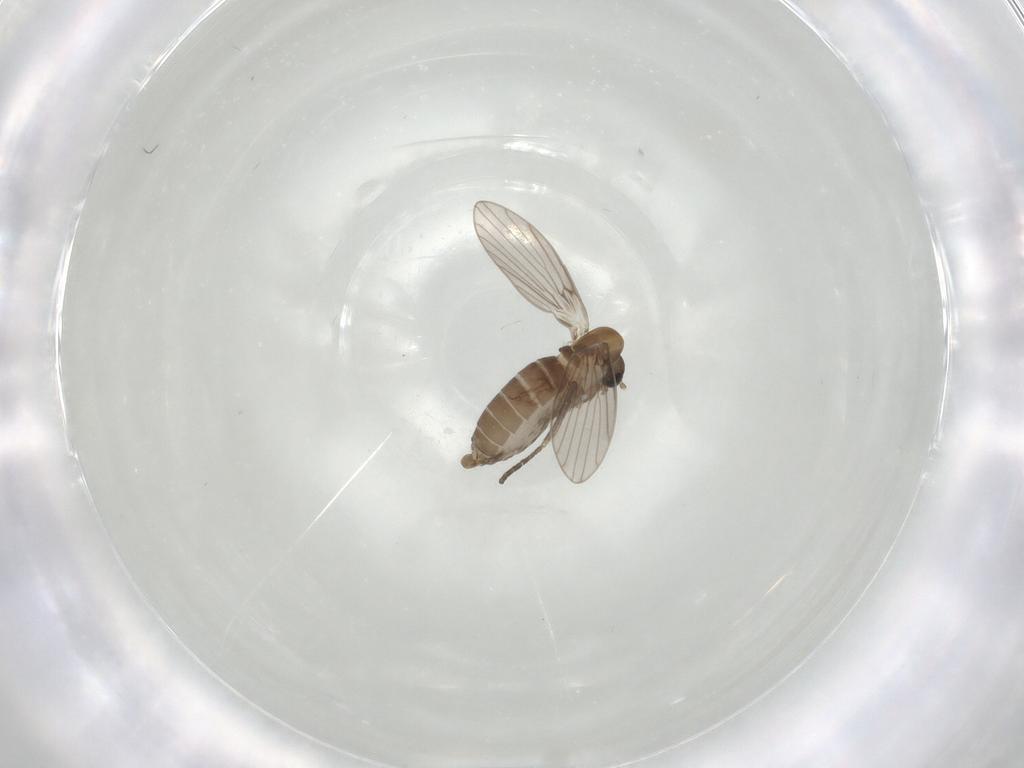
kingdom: Animalia
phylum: Arthropoda
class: Insecta
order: Diptera
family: Psychodidae
